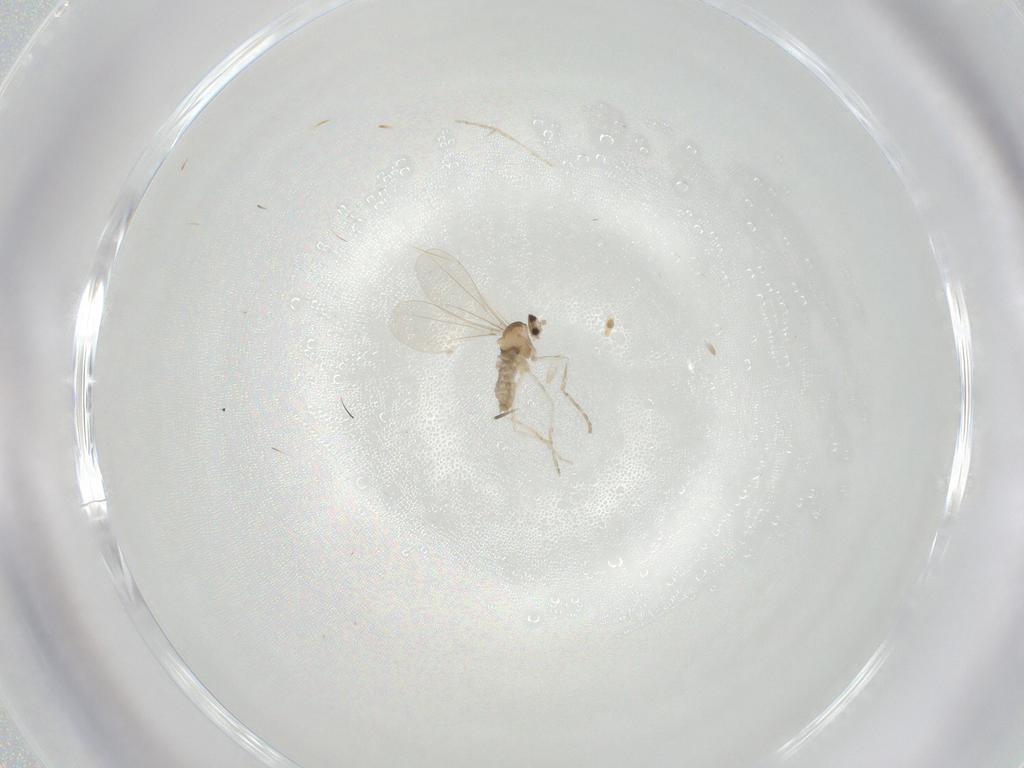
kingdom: Animalia
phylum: Arthropoda
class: Insecta
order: Diptera
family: Cecidomyiidae
